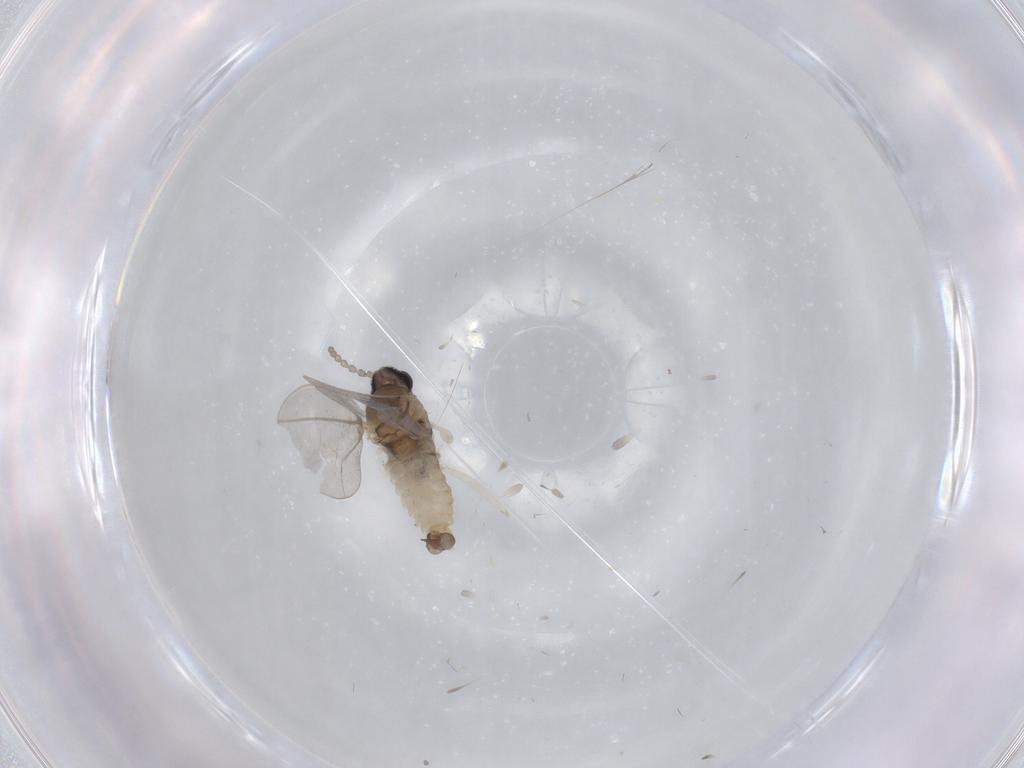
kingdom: Animalia
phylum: Arthropoda
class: Insecta
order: Diptera
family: Cecidomyiidae
